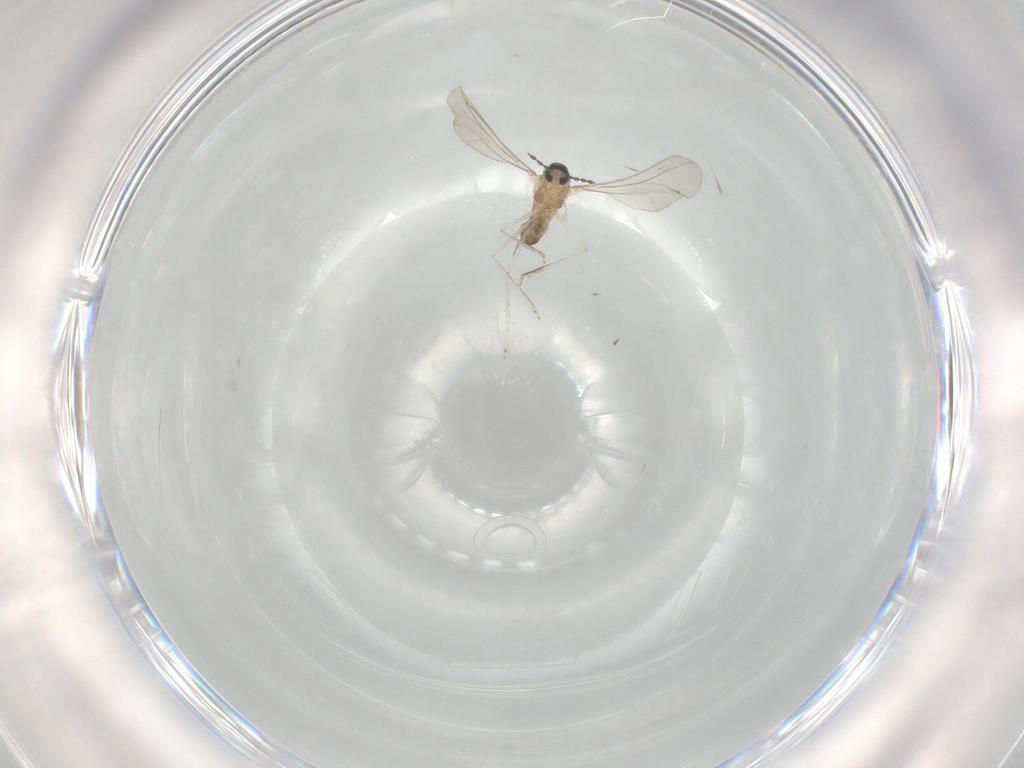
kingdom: Animalia
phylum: Arthropoda
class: Insecta
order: Diptera
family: Cecidomyiidae
